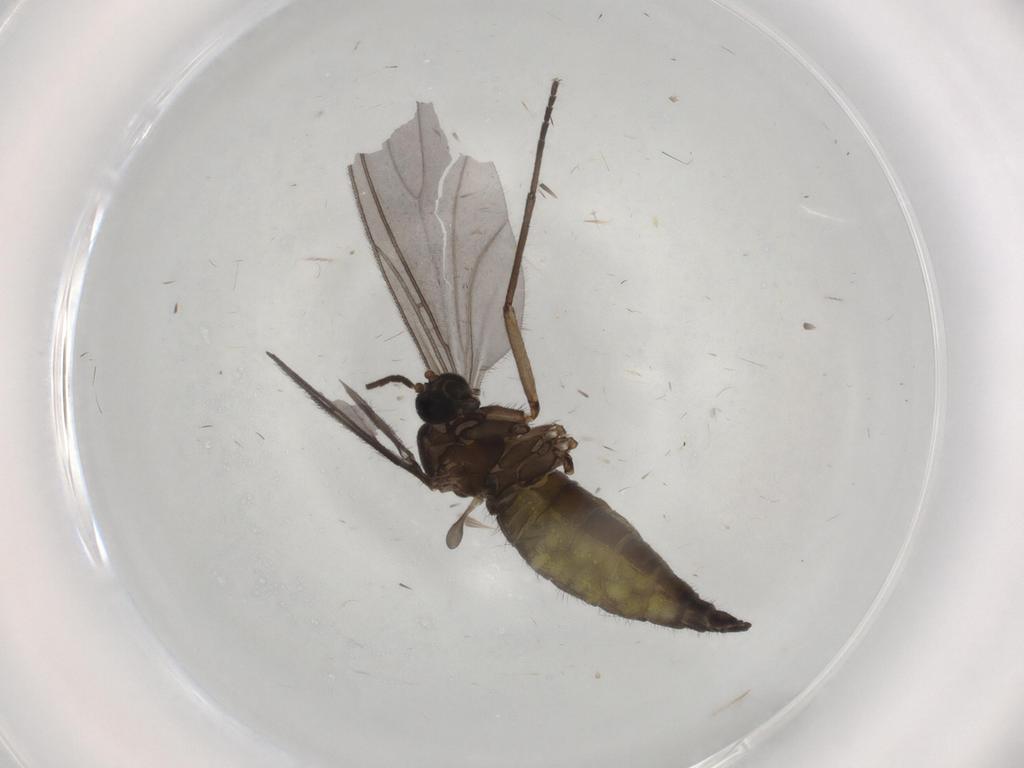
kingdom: Animalia
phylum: Arthropoda
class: Insecta
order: Diptera
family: Sciaridae
